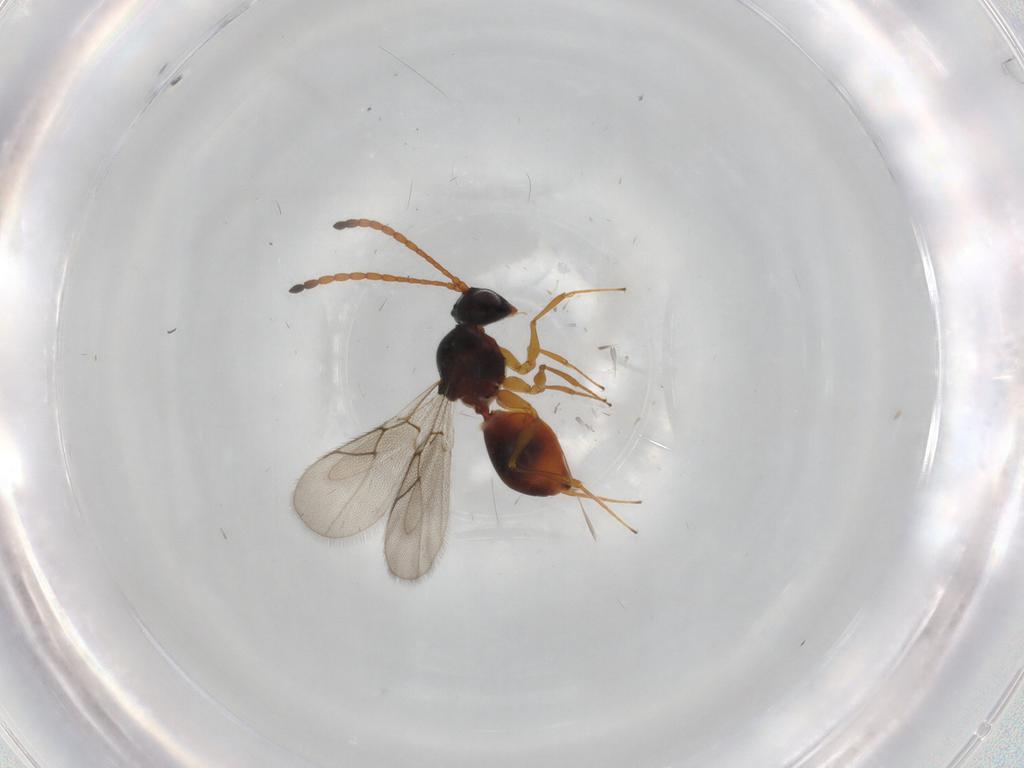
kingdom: Animalia
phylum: Arthropoda
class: Insecta
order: Hymenoptera
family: Figitidae
